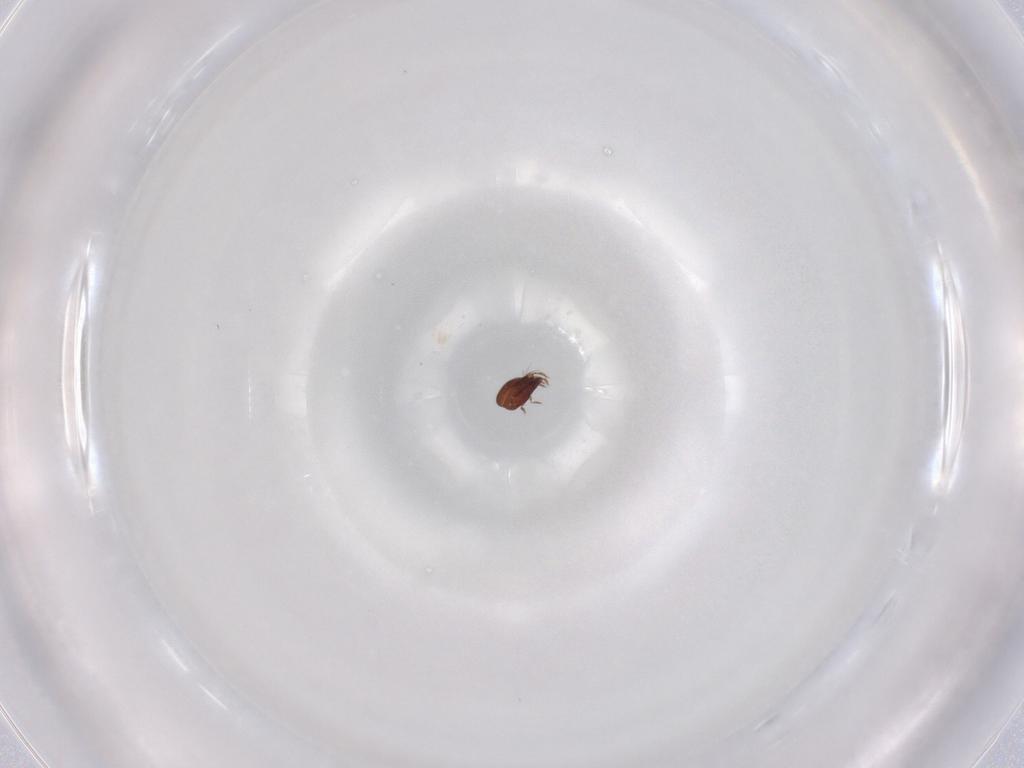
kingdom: Animalia
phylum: Arthropoda
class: Arachnida
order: Sarcoptiformes
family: Ceratozetidae
